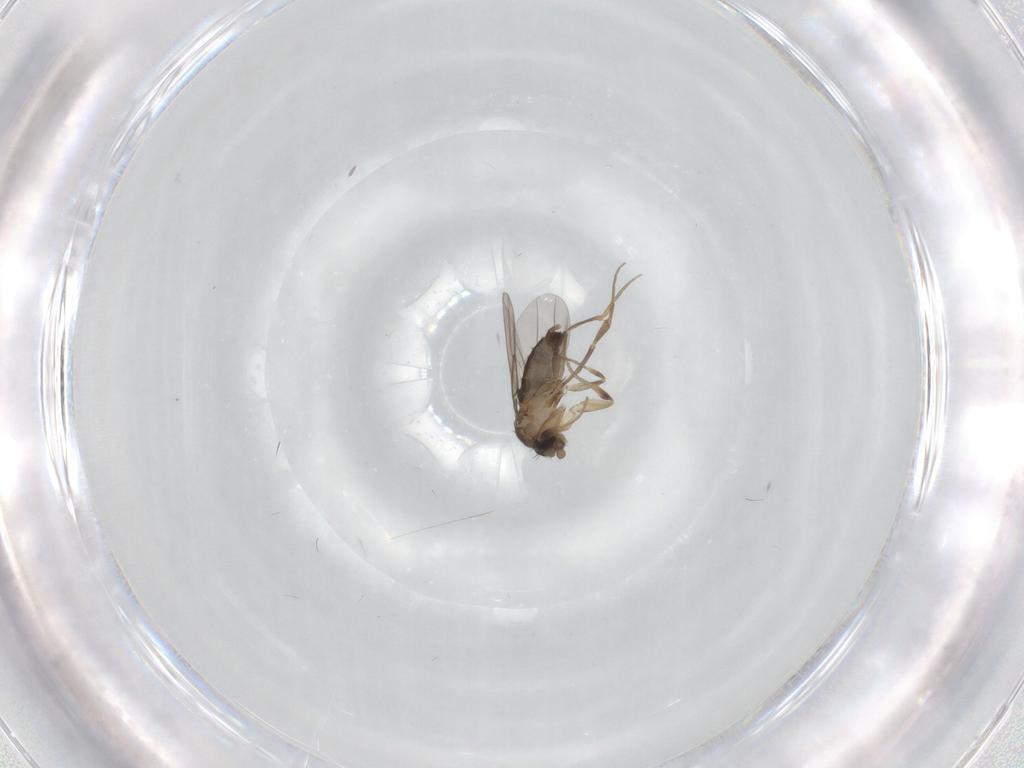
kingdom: Animalia
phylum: Arthropoda
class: Insecta
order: Diptera
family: Phoridae
